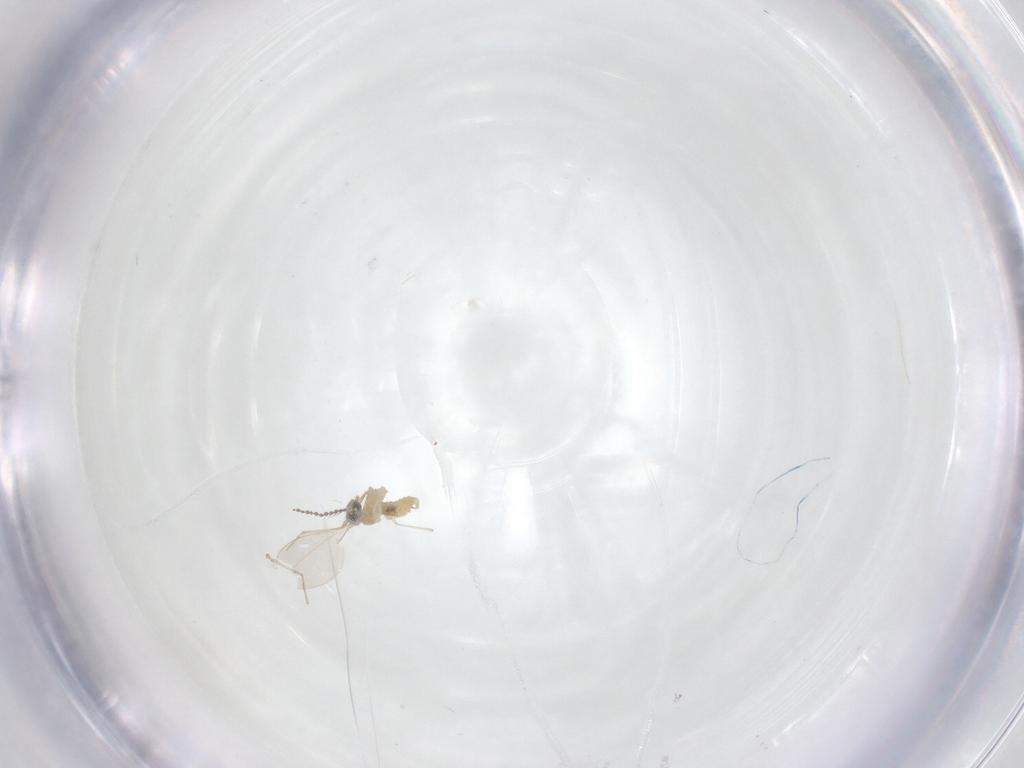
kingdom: Animalia
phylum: Arthropoda
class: Insecta
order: Diptera
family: Cecidomyiidae
